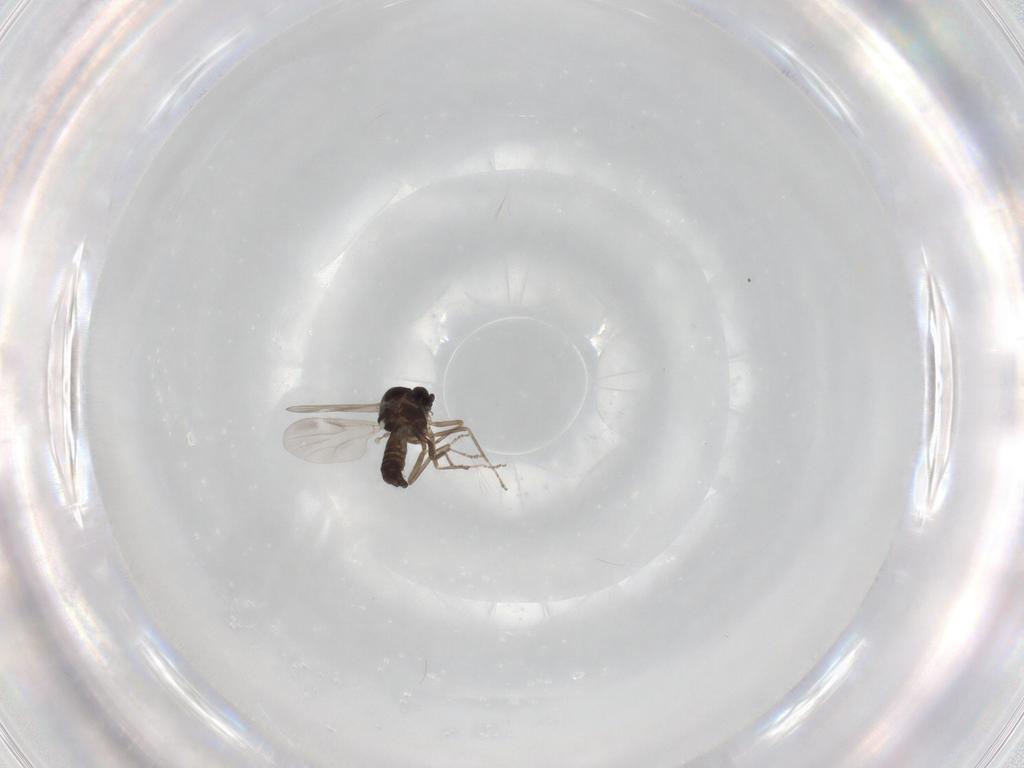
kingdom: Animalia
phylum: Arthropoda
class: Insecta
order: Diptera
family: Ceratopogonidae
